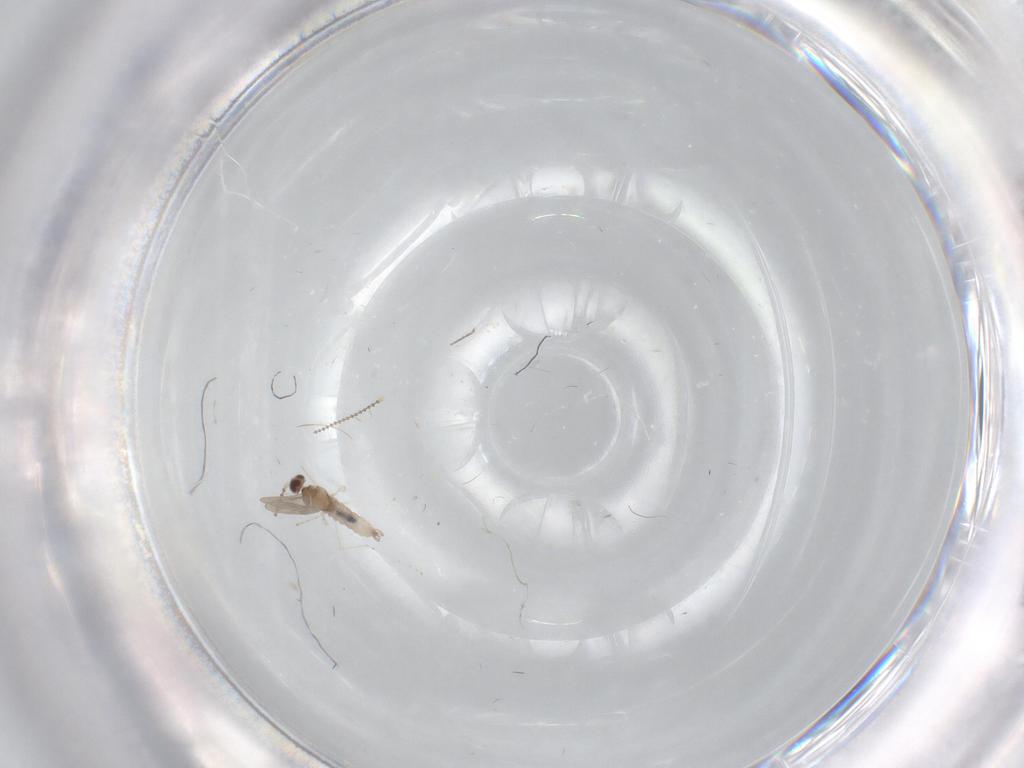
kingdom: Animalia
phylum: Arthropoda
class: Insecta
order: Diptera
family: Cecidomyiidae
